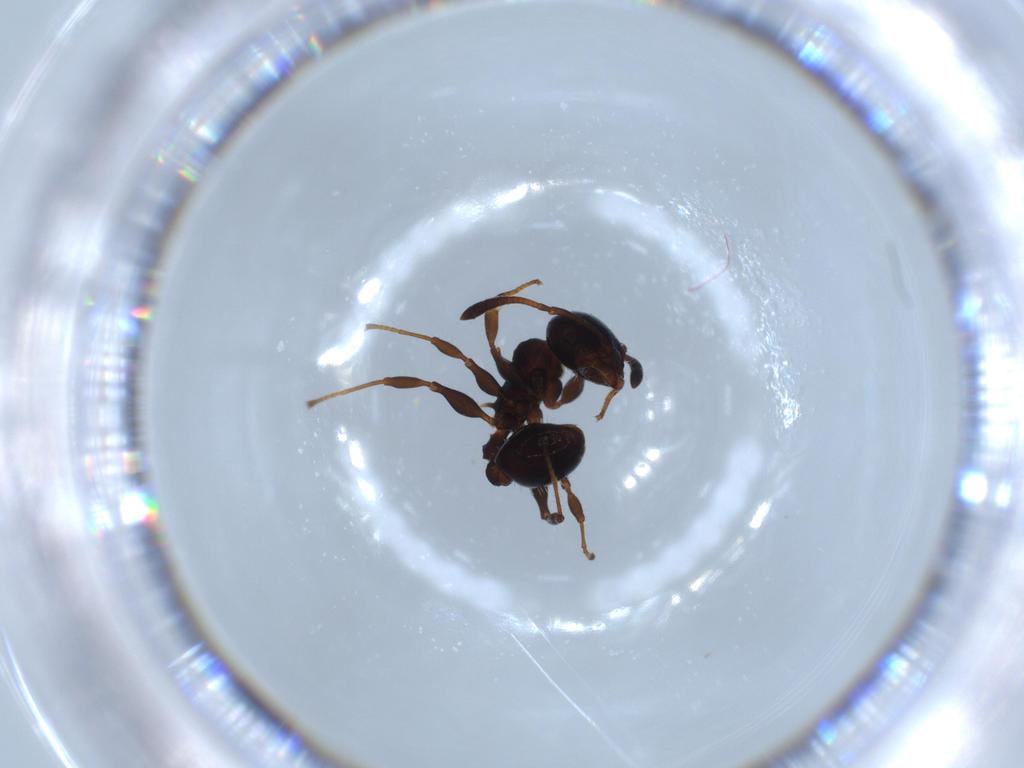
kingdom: Animalia
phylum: Arthropoda
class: Insecta
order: Hymenoptera
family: Formicidae
